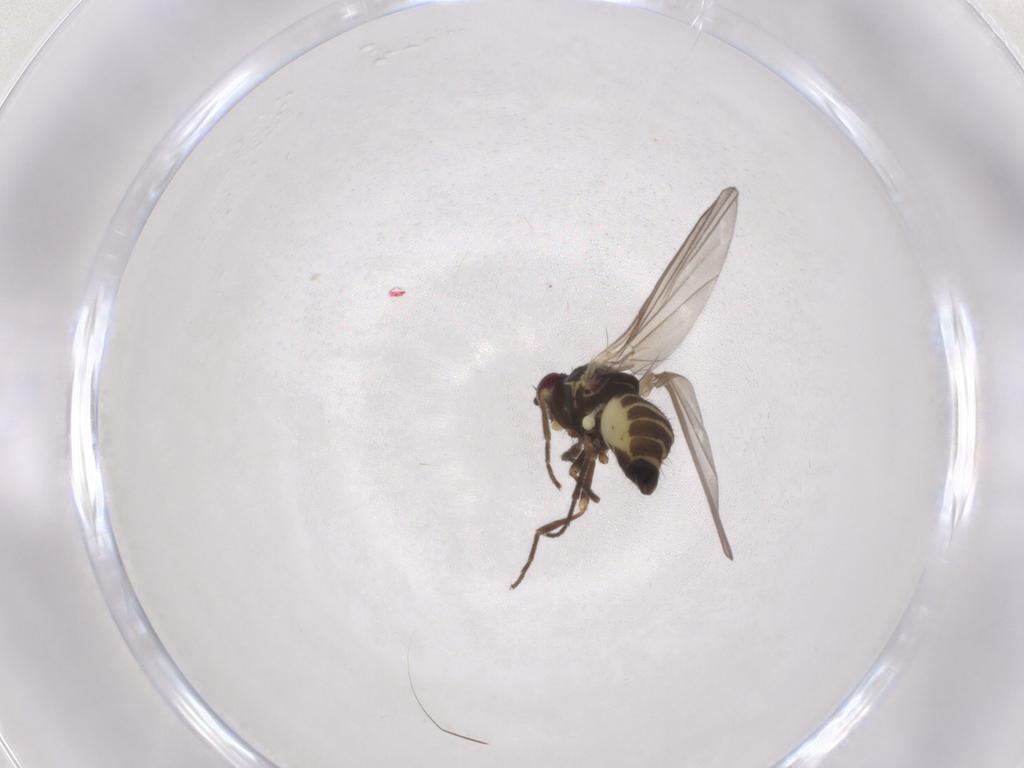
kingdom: Animalia
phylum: Arthropoda
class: Insecta
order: Diptera
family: Agromyzidae
